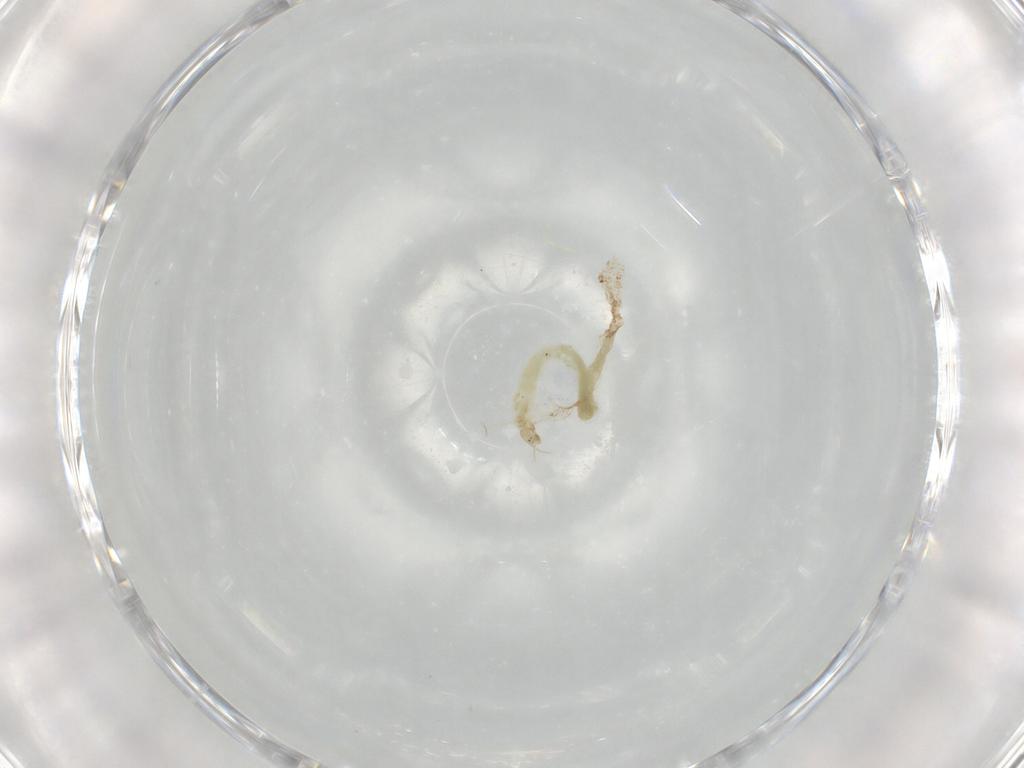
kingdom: Animalia
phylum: Arthropoda
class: Insecta
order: Diptera
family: Chironomidae
